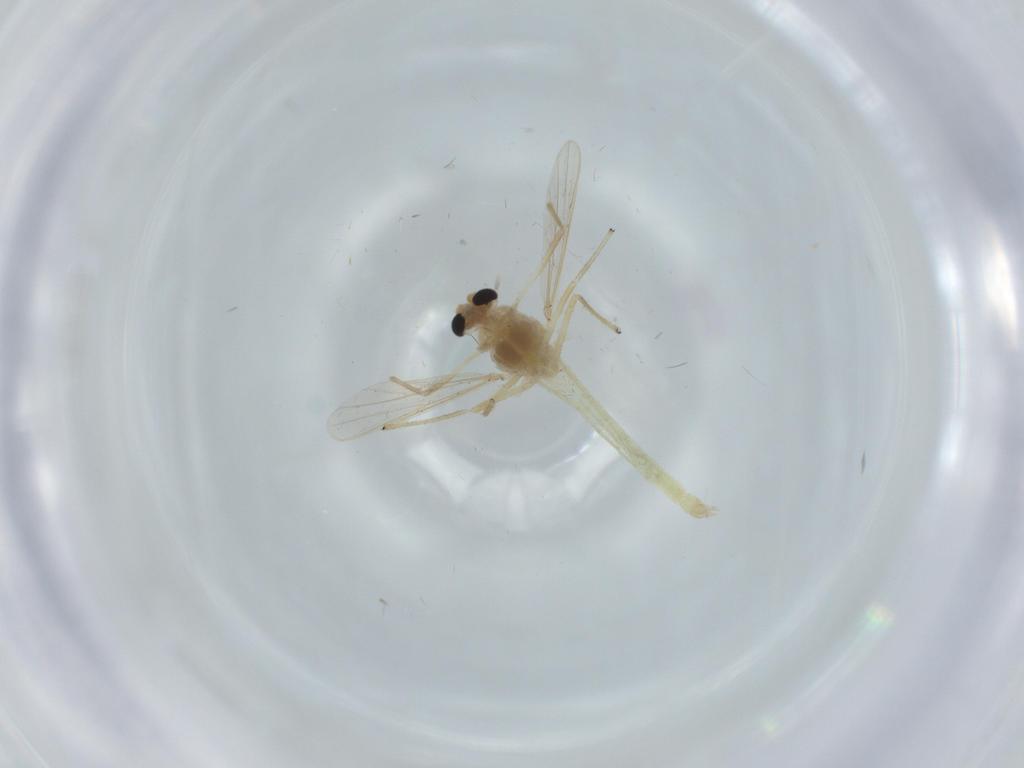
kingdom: Animalia
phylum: Arthropoda
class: Insecta
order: Diptera
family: Chironomidae
